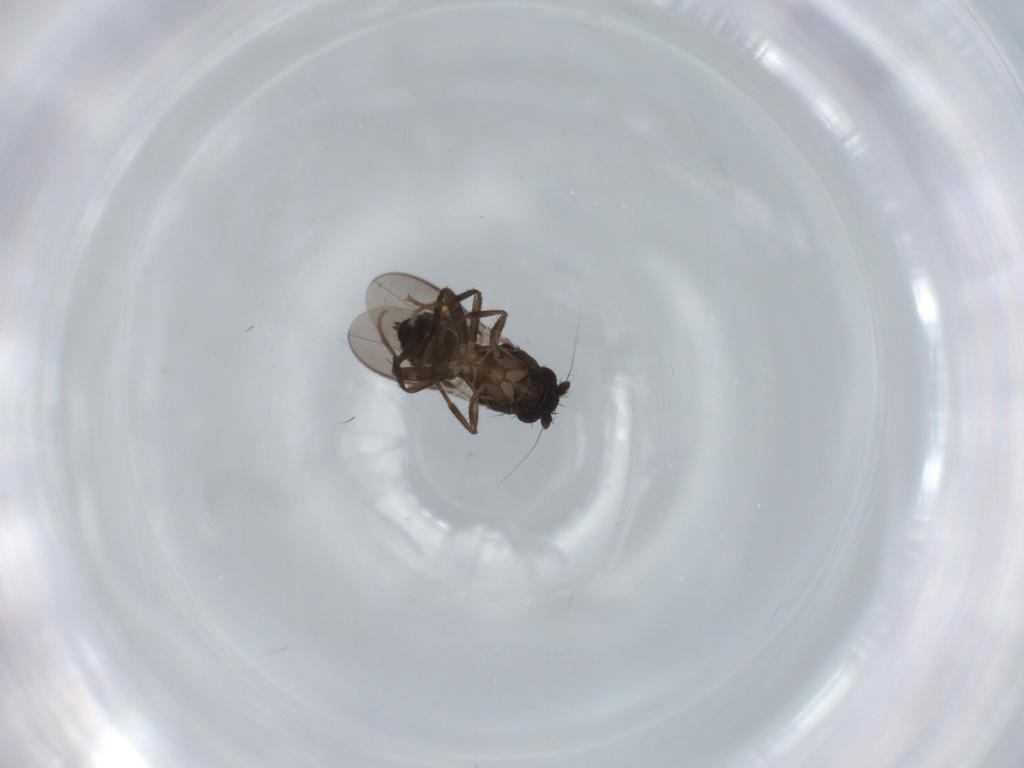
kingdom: Animalia
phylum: Arthropoda
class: Insecta
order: Diptera
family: Sphaeroceridae
